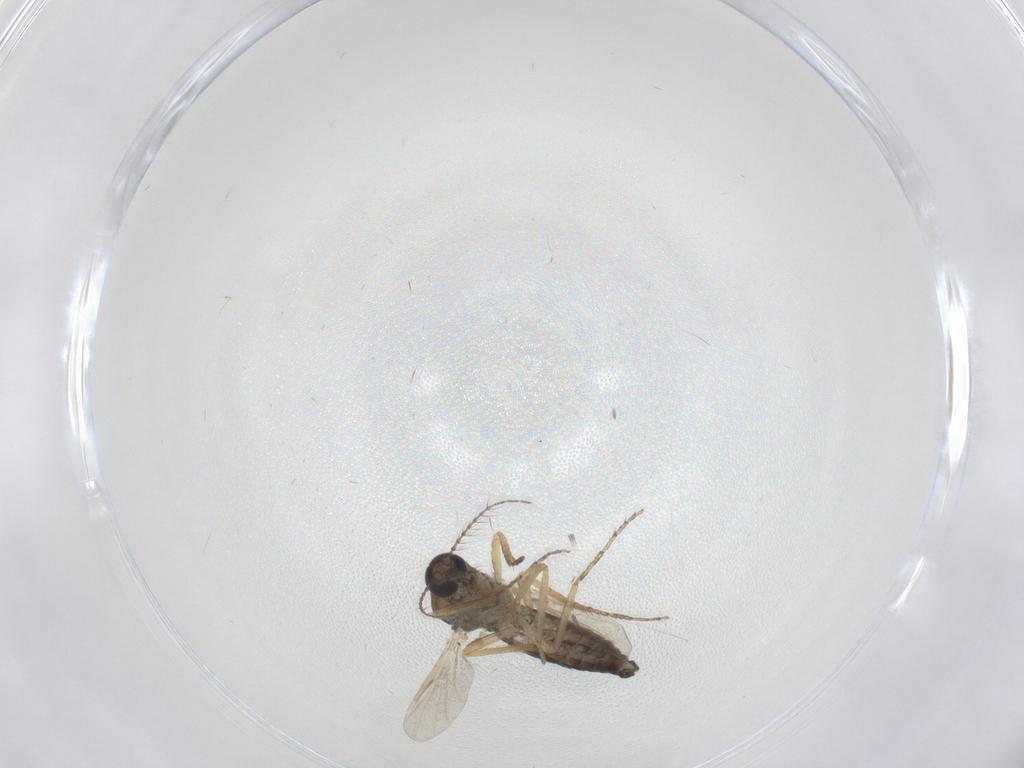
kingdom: Animalia
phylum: Arthropoda
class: Insecta
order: Diptera
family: Ceratopogonidae
